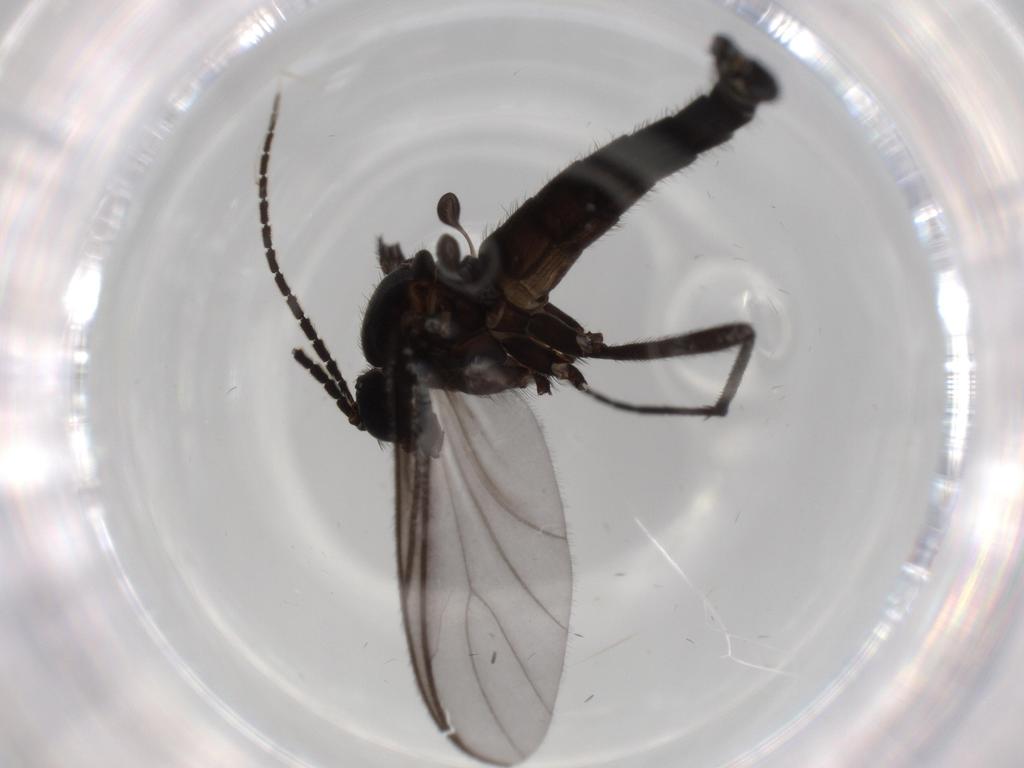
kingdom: Animalia
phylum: Arthropoda
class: Insecta
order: Diptera
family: Cecidomyiidae
